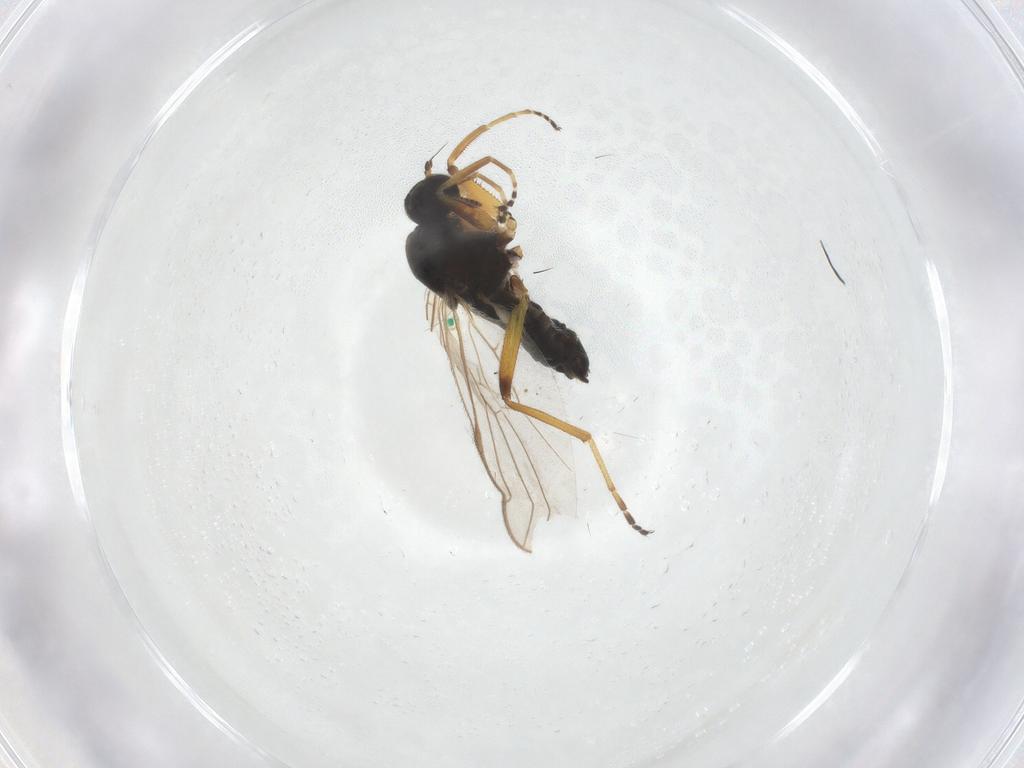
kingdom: Animalia
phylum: Arthropoda
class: Insecta
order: Diptera
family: Hybotidae
